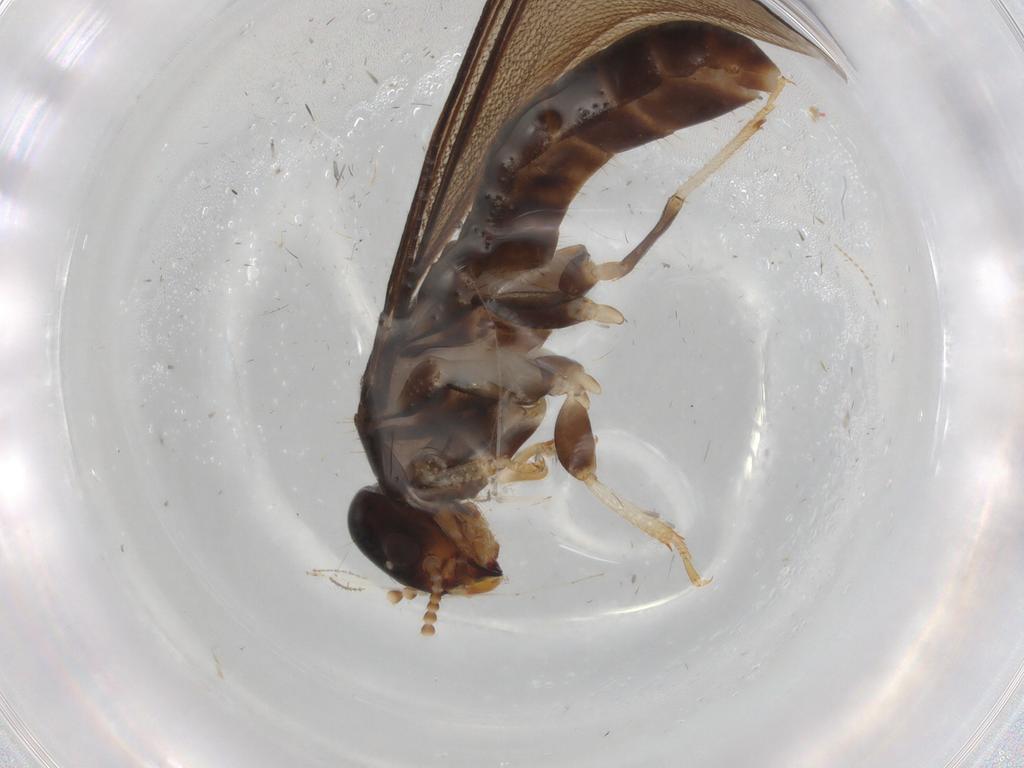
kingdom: Animalia
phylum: Arthropoda
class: Insecta
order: Blattodea
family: Kalotermitidae
